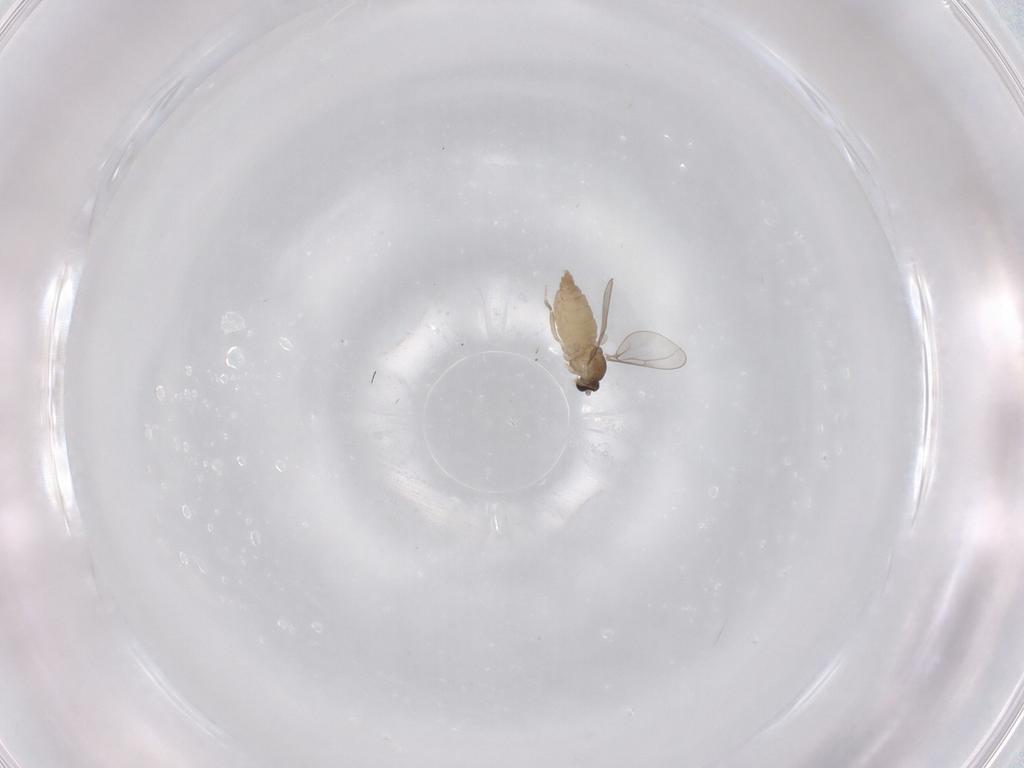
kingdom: Animalia
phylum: Arthropoda
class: Insecta
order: Diptera
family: Cecidomyiidae
